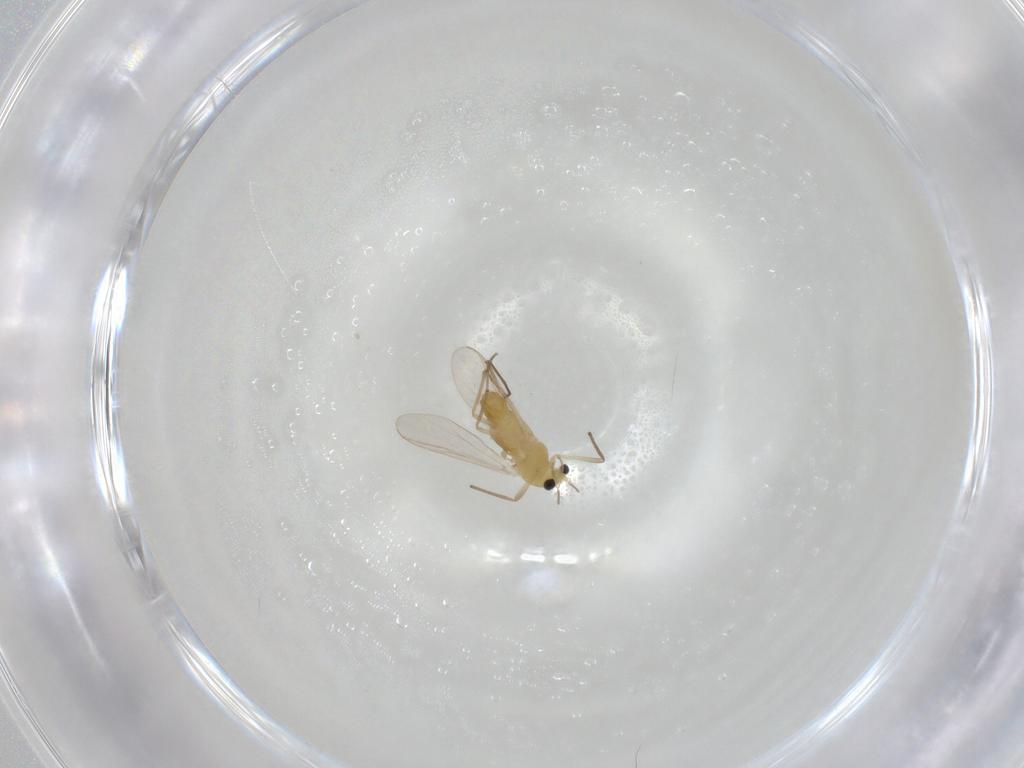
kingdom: Animalia
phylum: Arthropoda
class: Insecta
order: Diptera
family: Chironomidae
